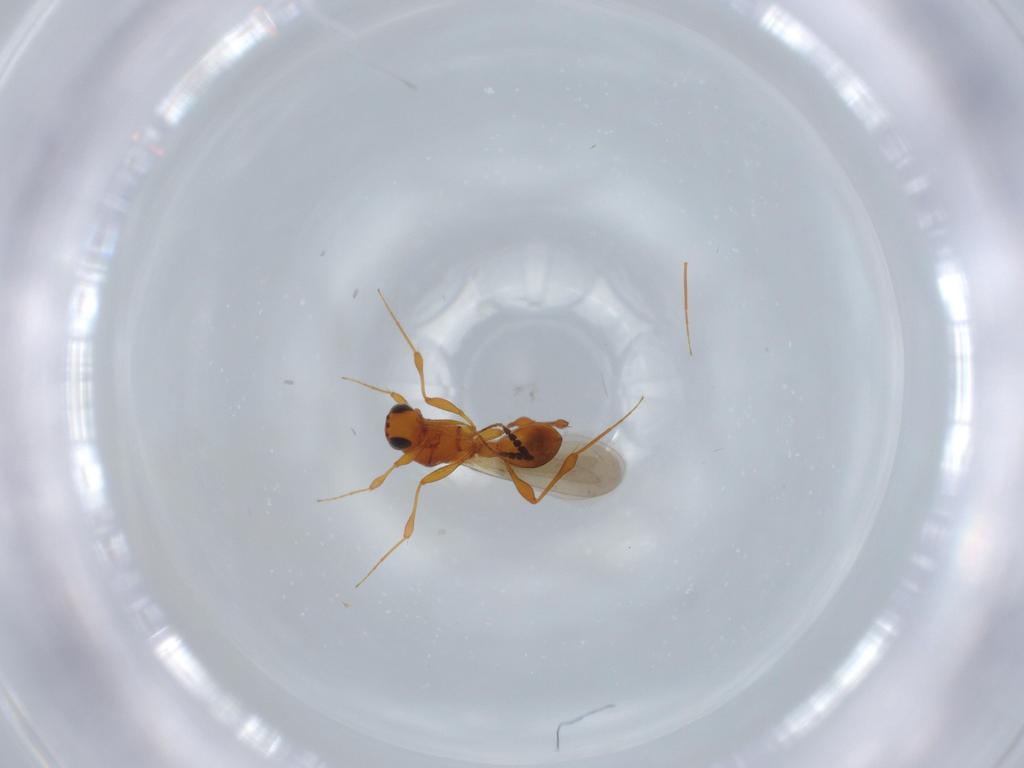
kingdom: Animalia
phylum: Arthropoda
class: Insecta
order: Hymenoptera
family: Platygastridae
